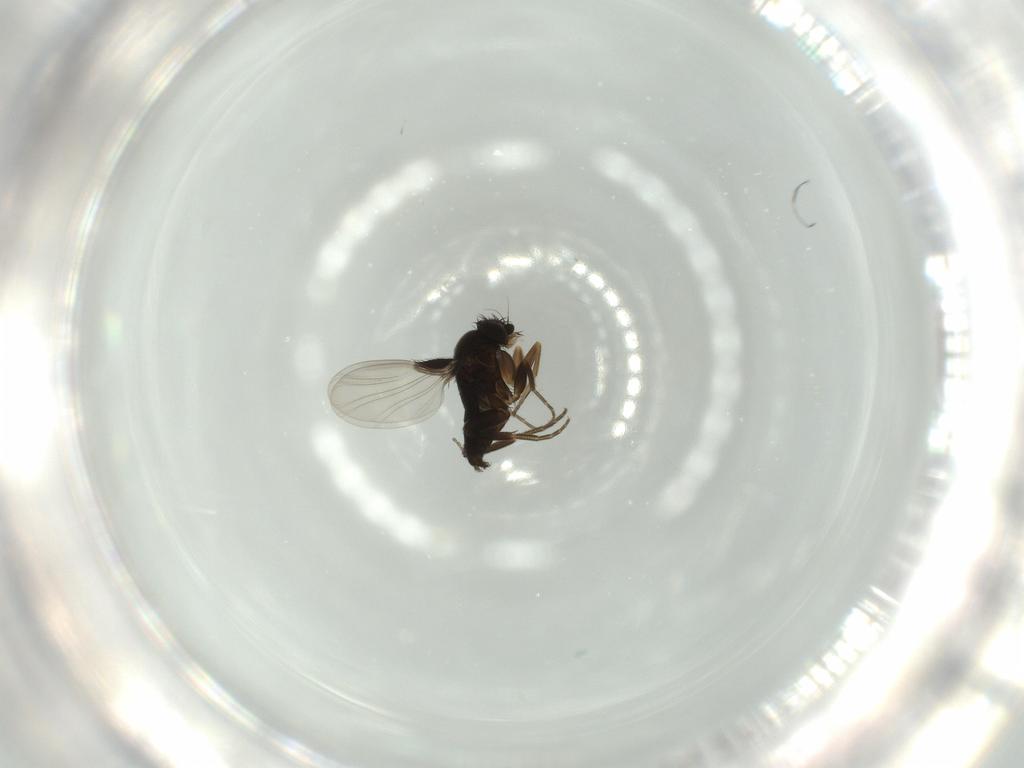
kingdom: Animalia
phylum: Arthropoda
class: Insecta
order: Diptera
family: Phoridae
